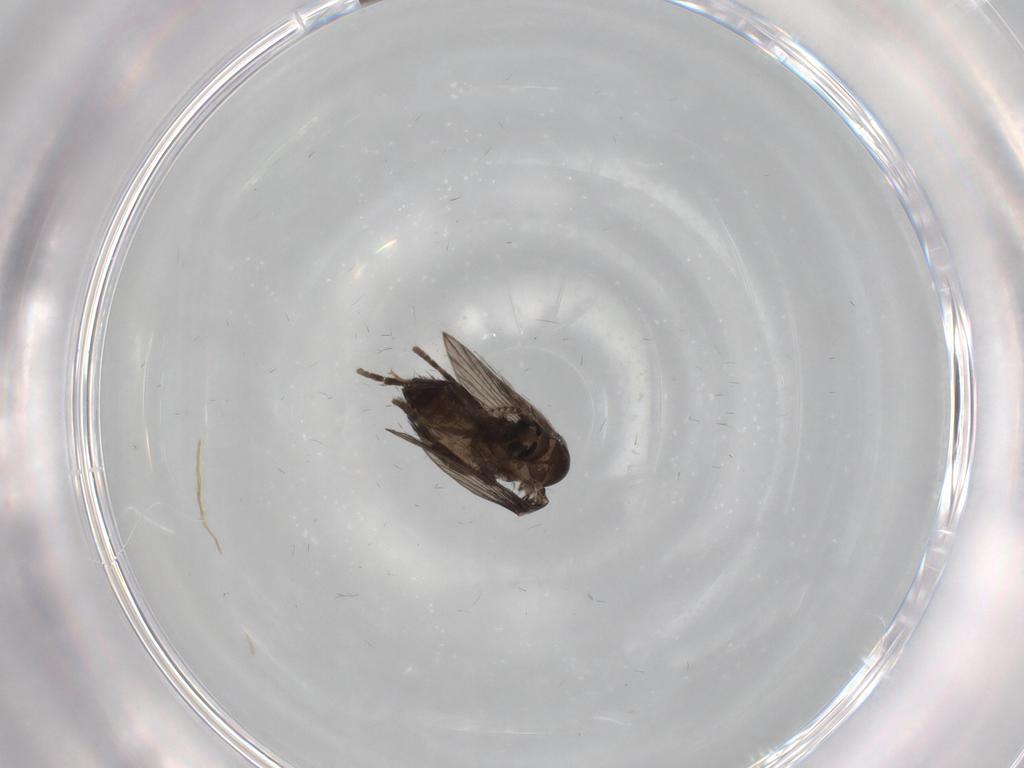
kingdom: Animalia
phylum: Arthropoda
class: Insecta
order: Diptera
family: Psychodidae
